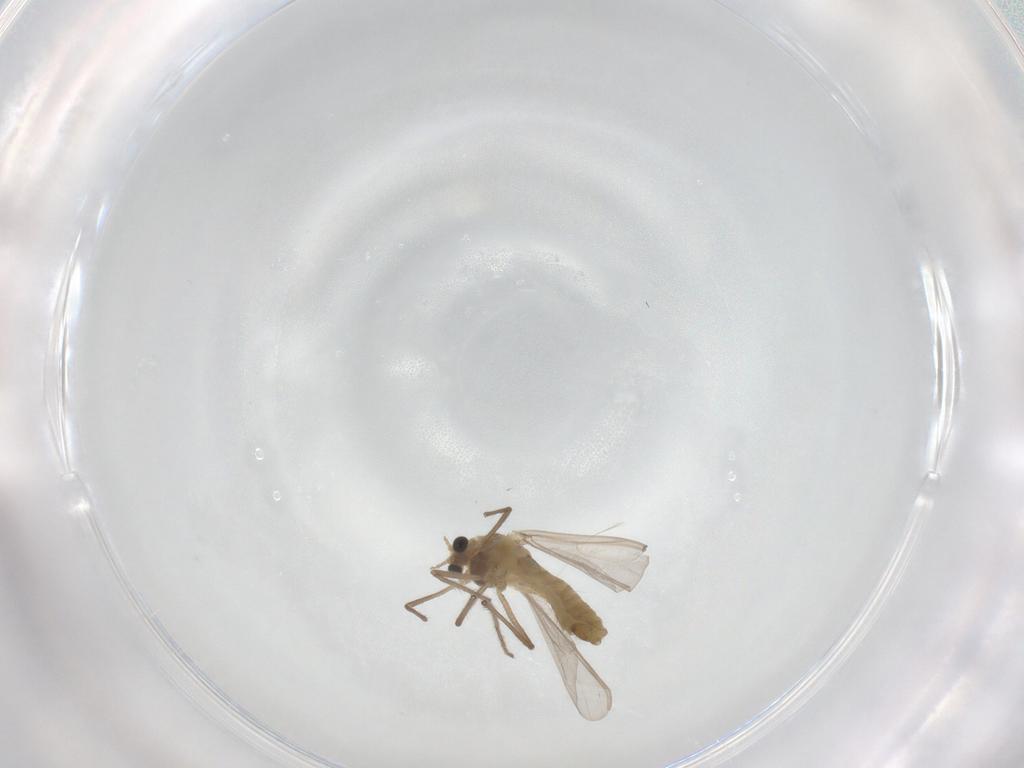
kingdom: Animalia
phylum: Arthropoda
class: Insecta
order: Diptera
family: Chironomidae
